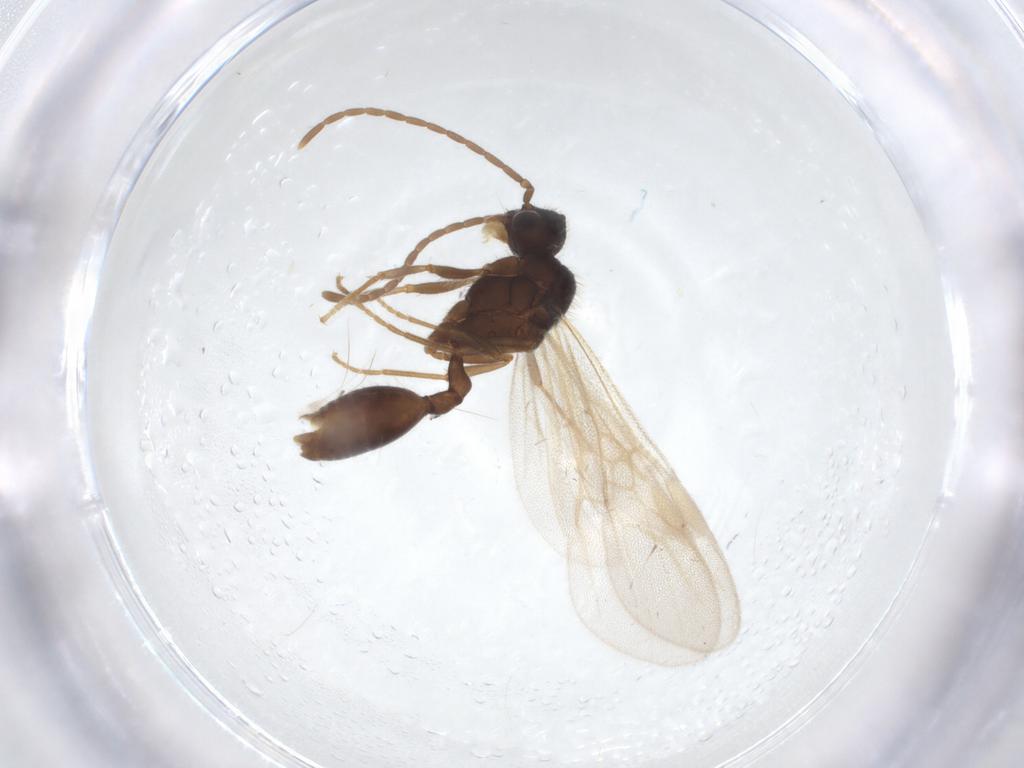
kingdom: Animalia
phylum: Arthropoda
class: Insecta
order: Hymenoptera
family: Formicidae
